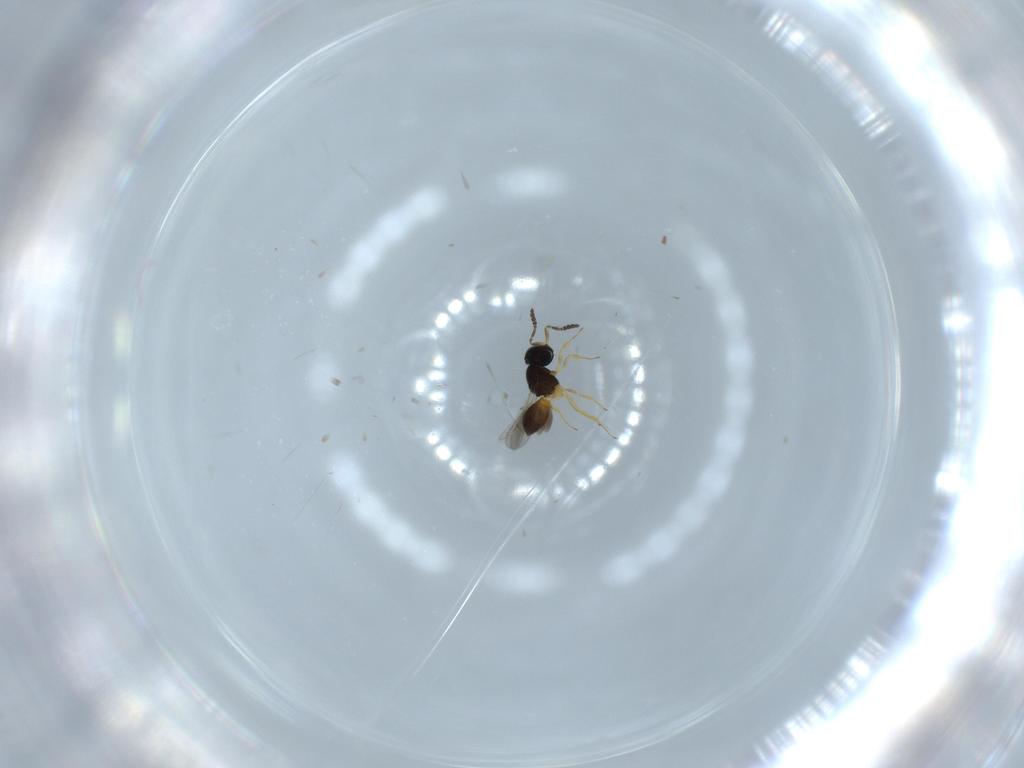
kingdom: Animalia
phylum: Arthropoda
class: Insecta
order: Hymenoptera
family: Scelionidae
